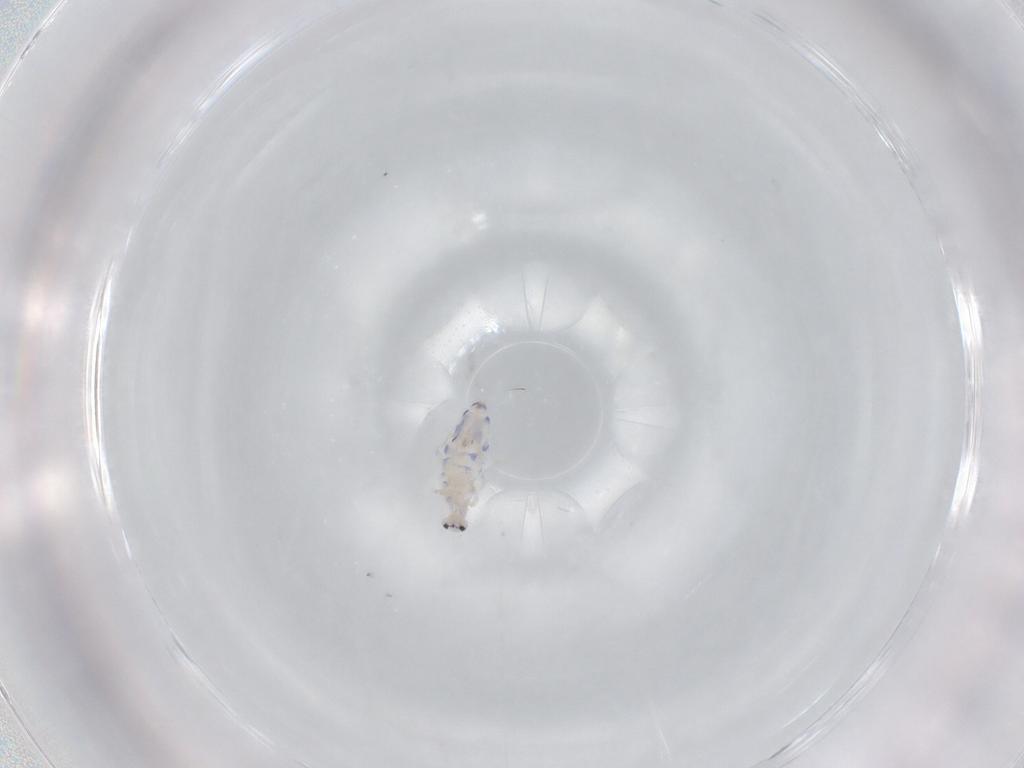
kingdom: Animalia
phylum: Arthropoda
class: Collembola
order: Entomobryomorpha
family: Entomobryidae
